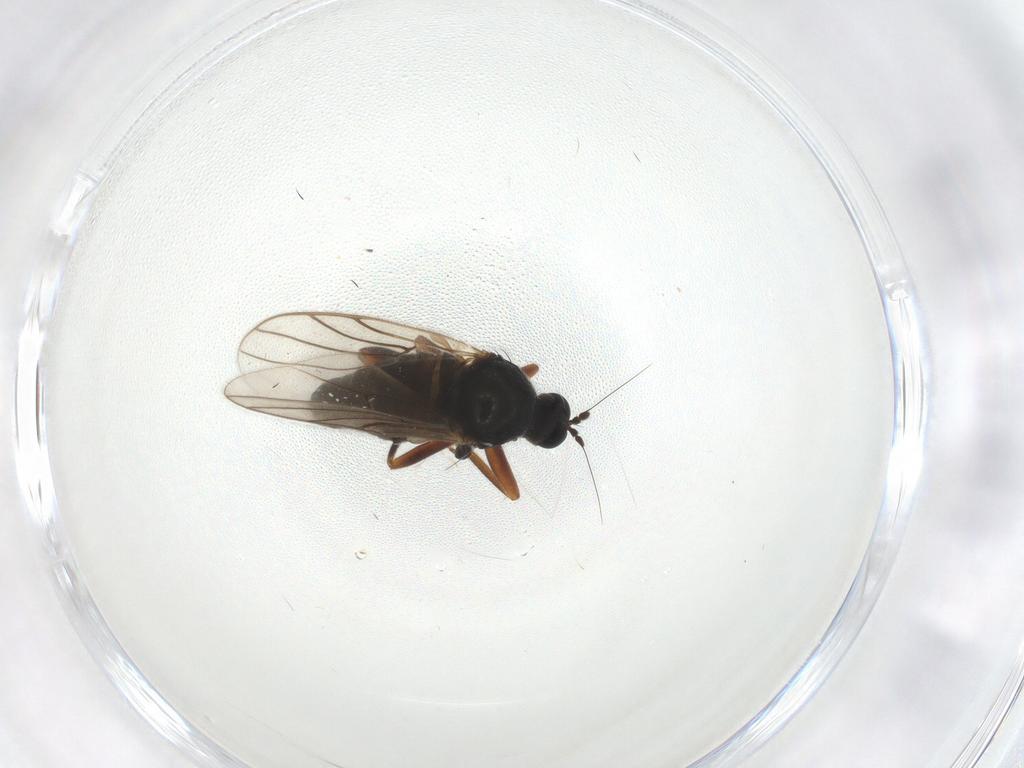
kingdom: Animalia
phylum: Arthropoda
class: Insecta
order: Diptera
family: Cecidomyiidae
